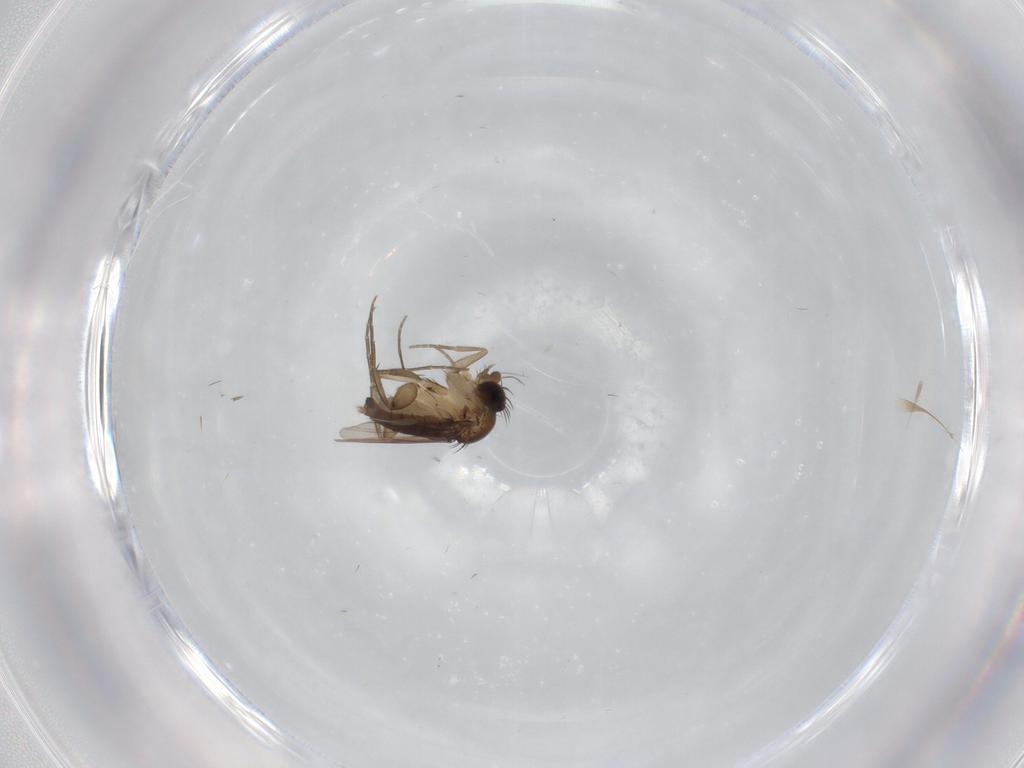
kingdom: Animalia
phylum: Arthropoda
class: Insecta
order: Diptera
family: Phoridae
